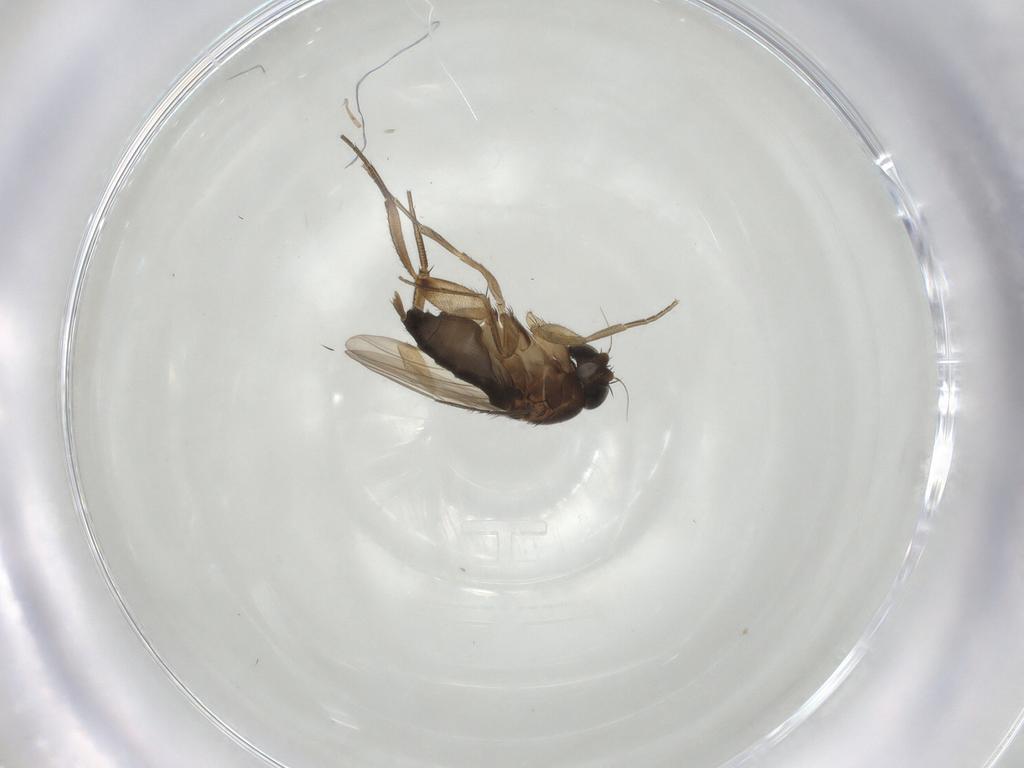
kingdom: Animalia
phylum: Arthropoda
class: Insecta
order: Diptera
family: Phoridae
